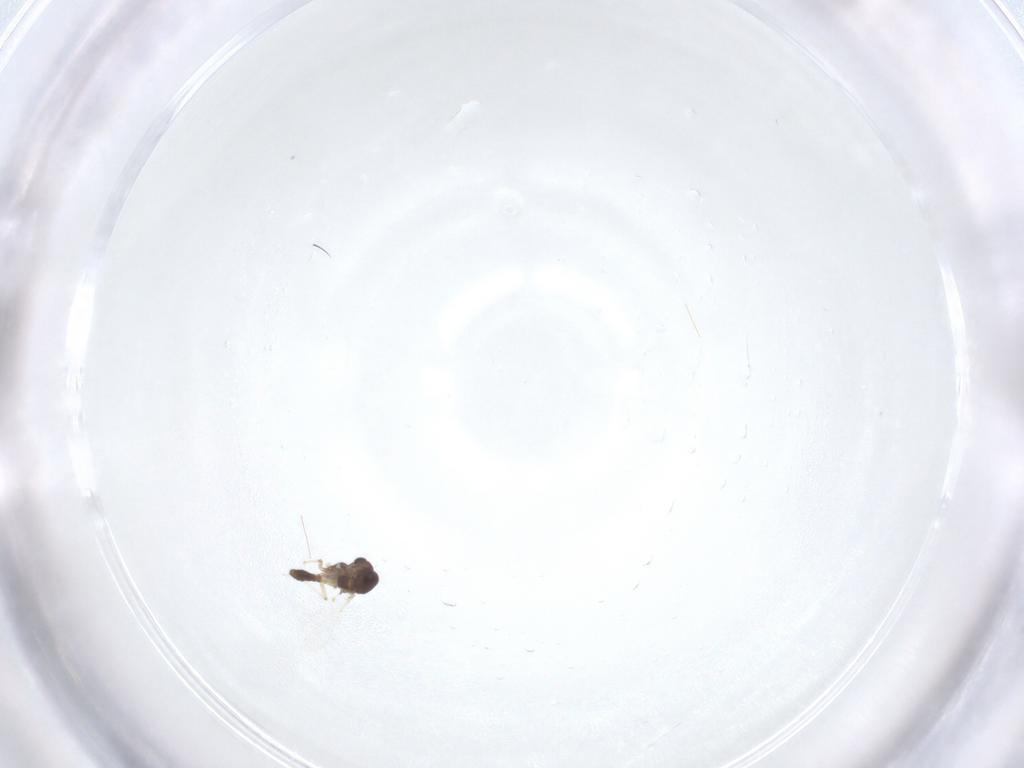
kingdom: Animalia
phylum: Arthropoda
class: Insecta
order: Diptera
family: Chironomidae
